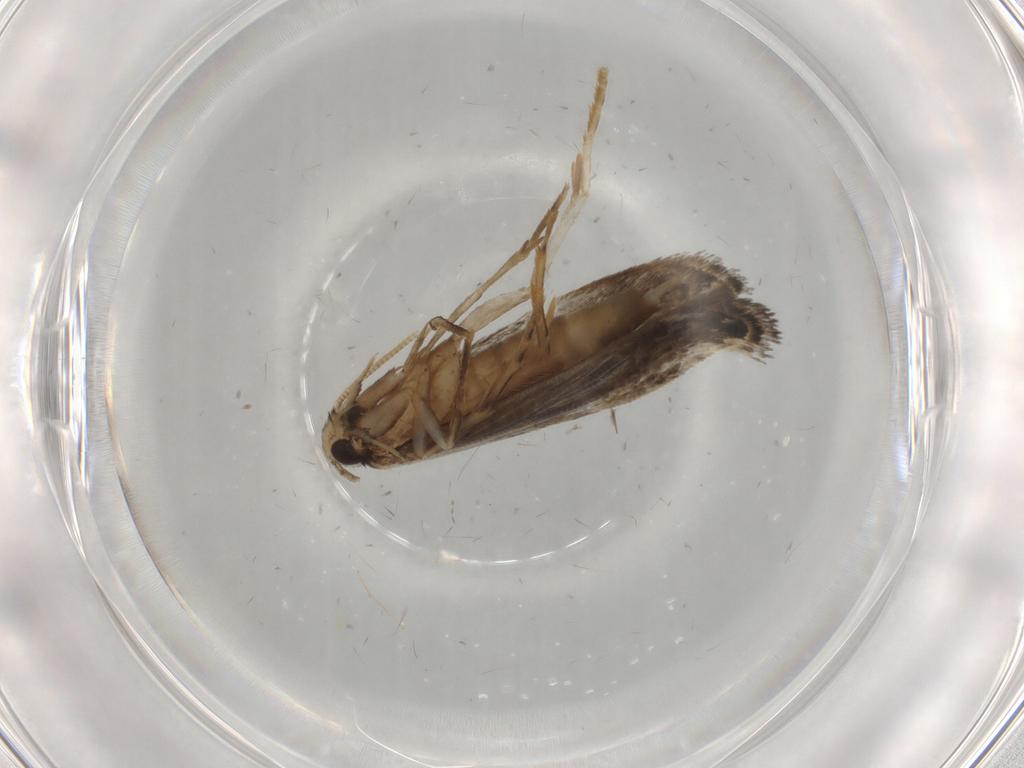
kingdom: Animalia
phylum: Arthropoda
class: Insecta
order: Lepidoptera
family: Tineidae
